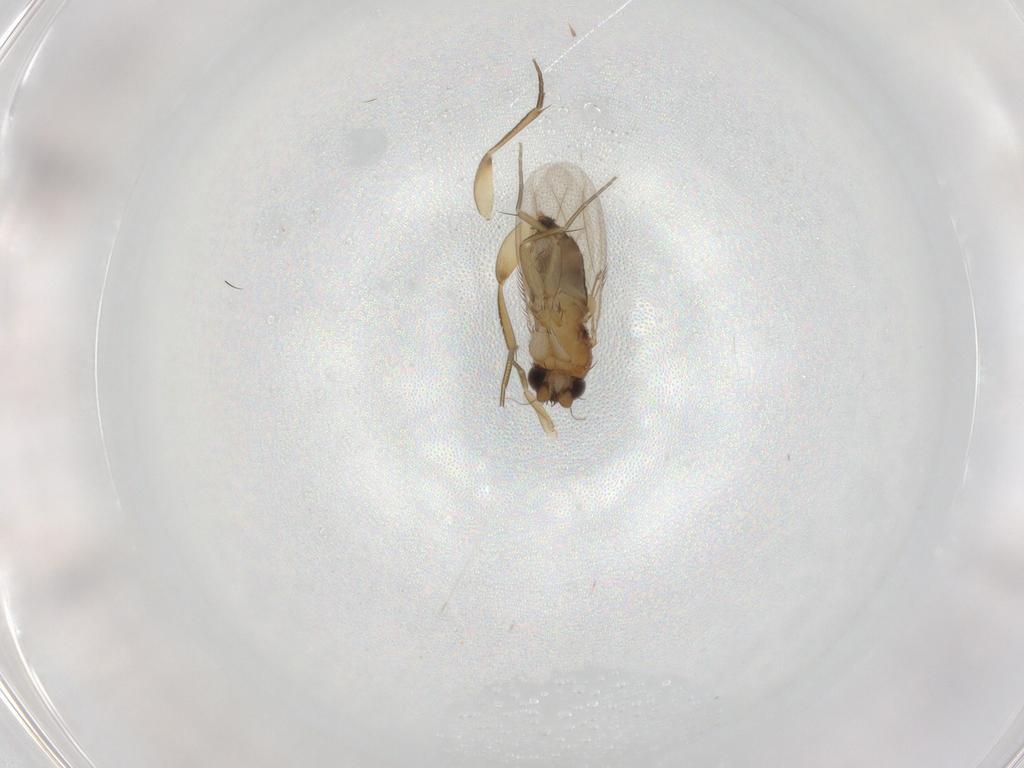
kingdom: Animalia
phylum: Arthropoda
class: Insecta
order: Diptera
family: Phoridae
